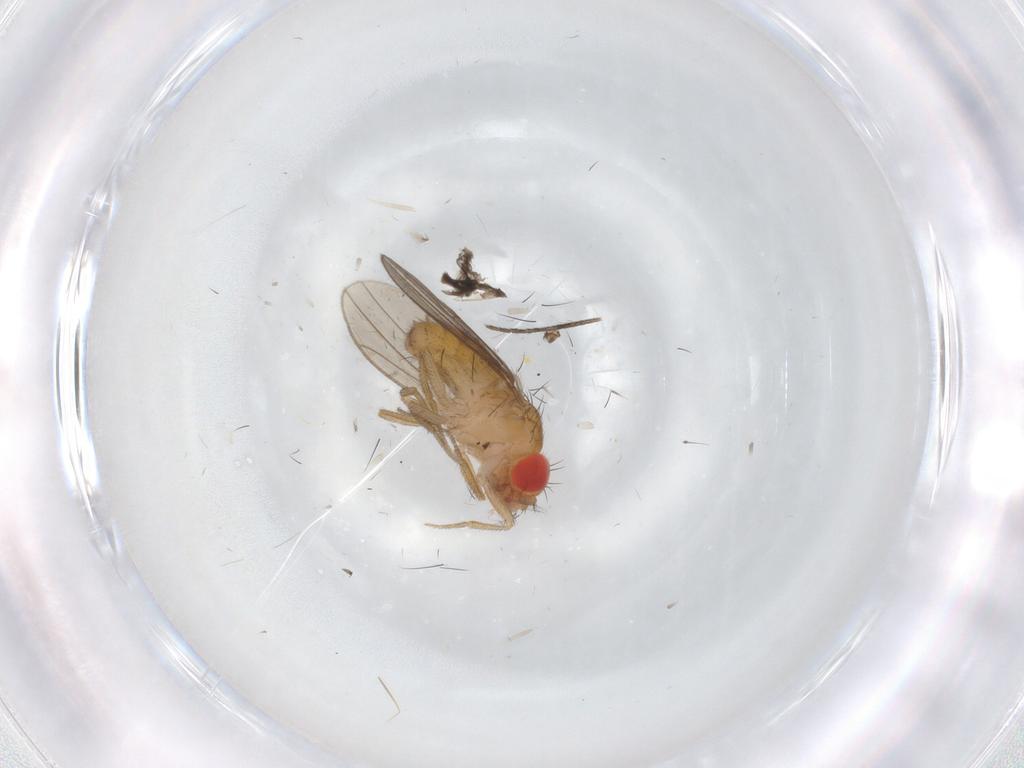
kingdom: Animalia
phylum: Arthropoda
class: Insecta
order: Diptera
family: Drosophilidae
